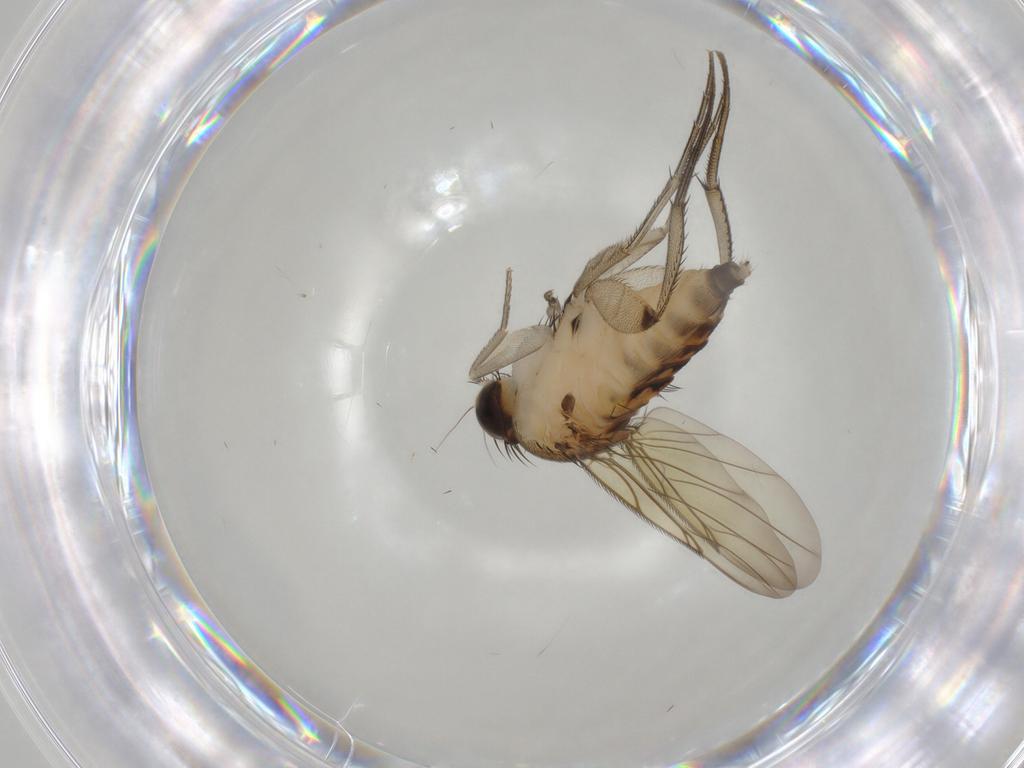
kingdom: Animalia
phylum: Arthropoda
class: Insecta
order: Diptera
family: Phoridae
